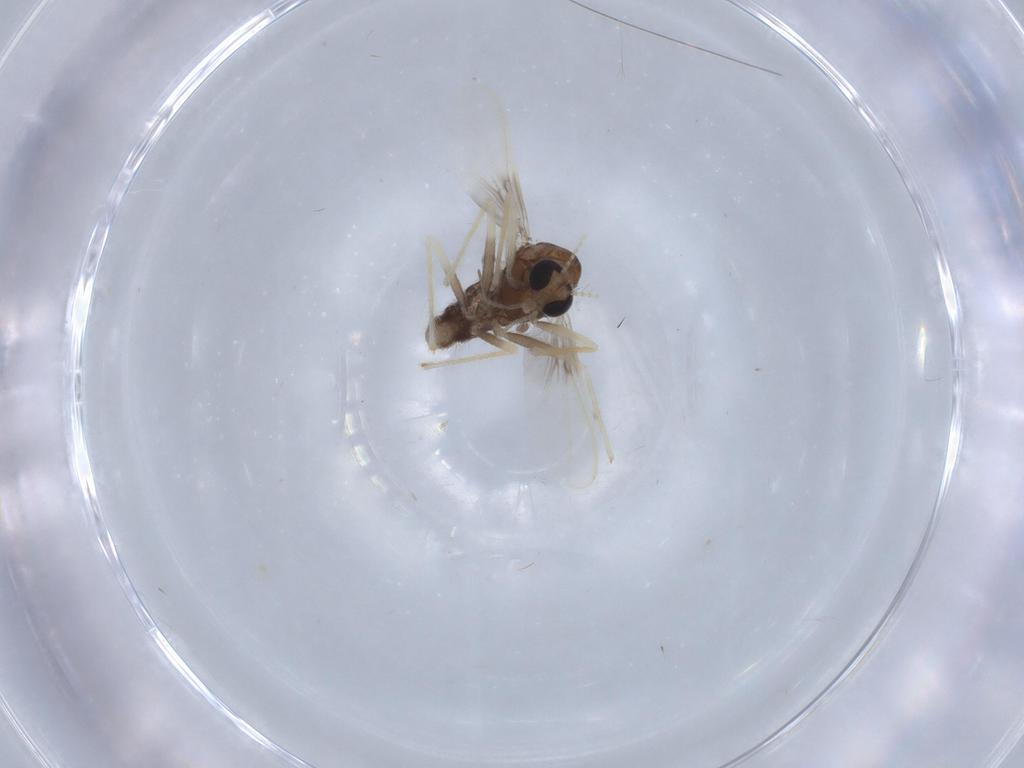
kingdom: Animalia
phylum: Arthropoda
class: Insecta
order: Diptera
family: Chironomidae
